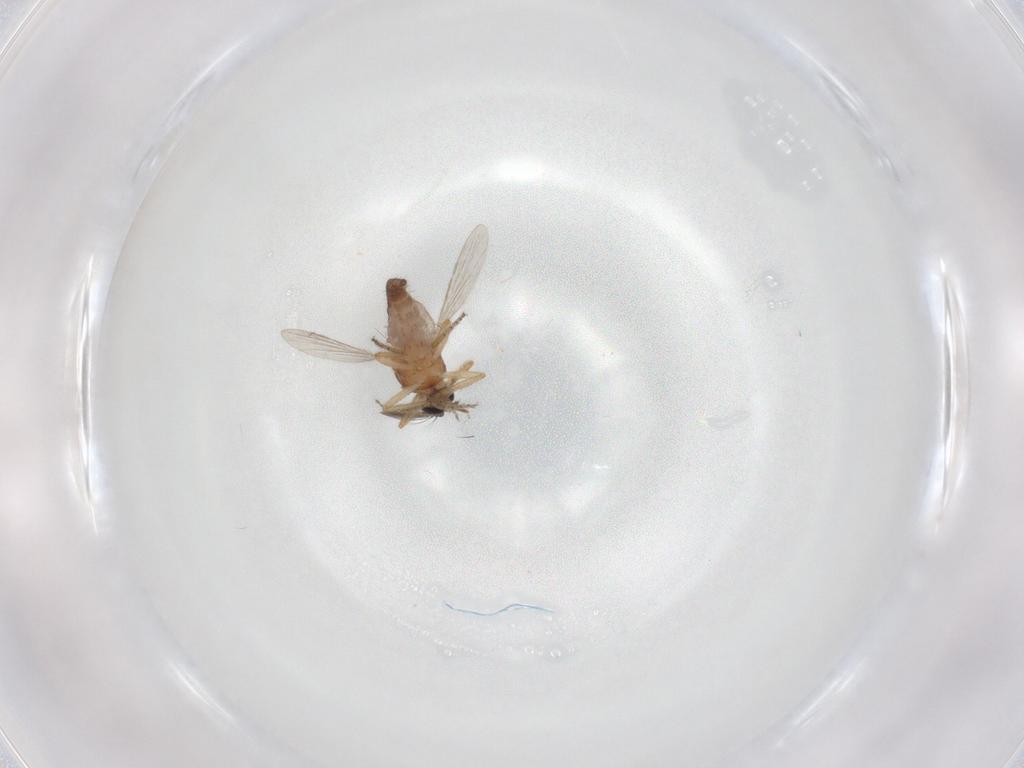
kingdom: Animalia
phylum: Arthropoda
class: Insecta
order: Diptera
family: Ceratopogonidae
